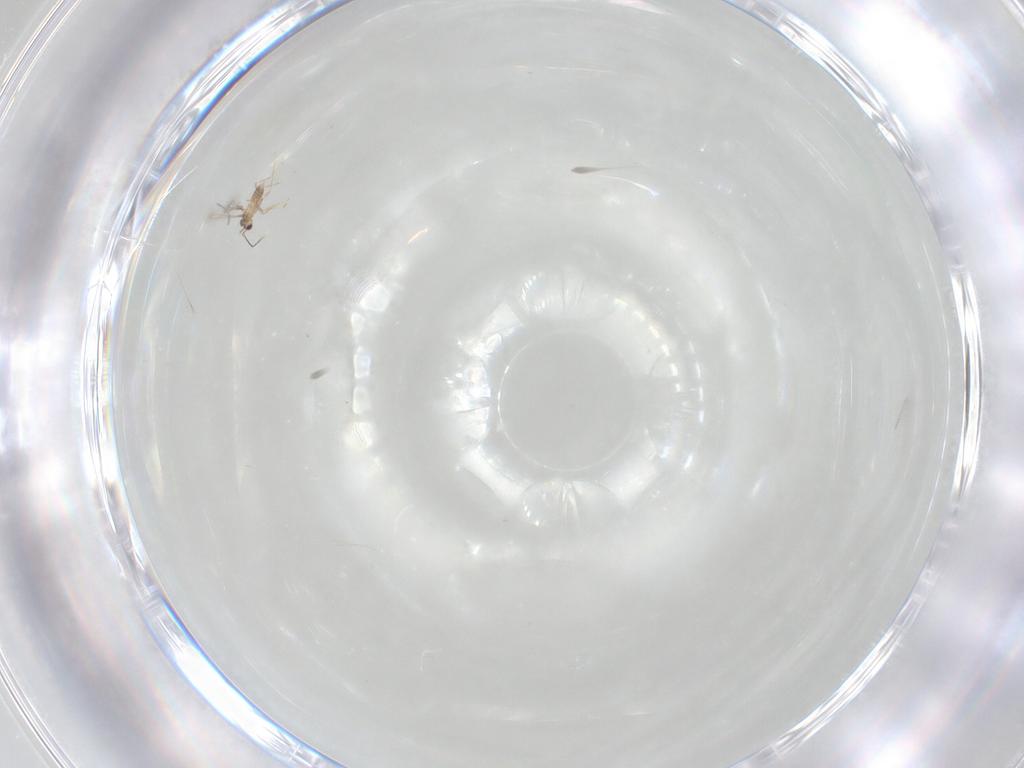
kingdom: Animalia
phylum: Arthropoda
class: Insecta
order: Hymenoptera
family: Mymaridae
